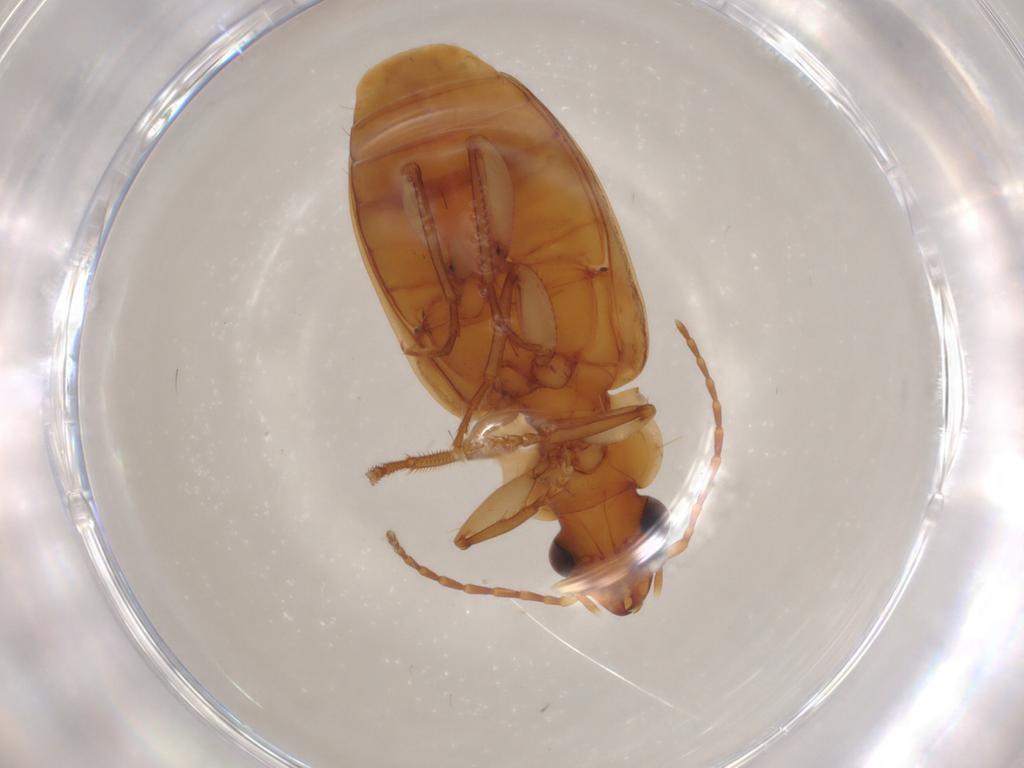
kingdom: Animalia
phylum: Arthropoda
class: Insecta
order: Coleoptera
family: Carabidae
